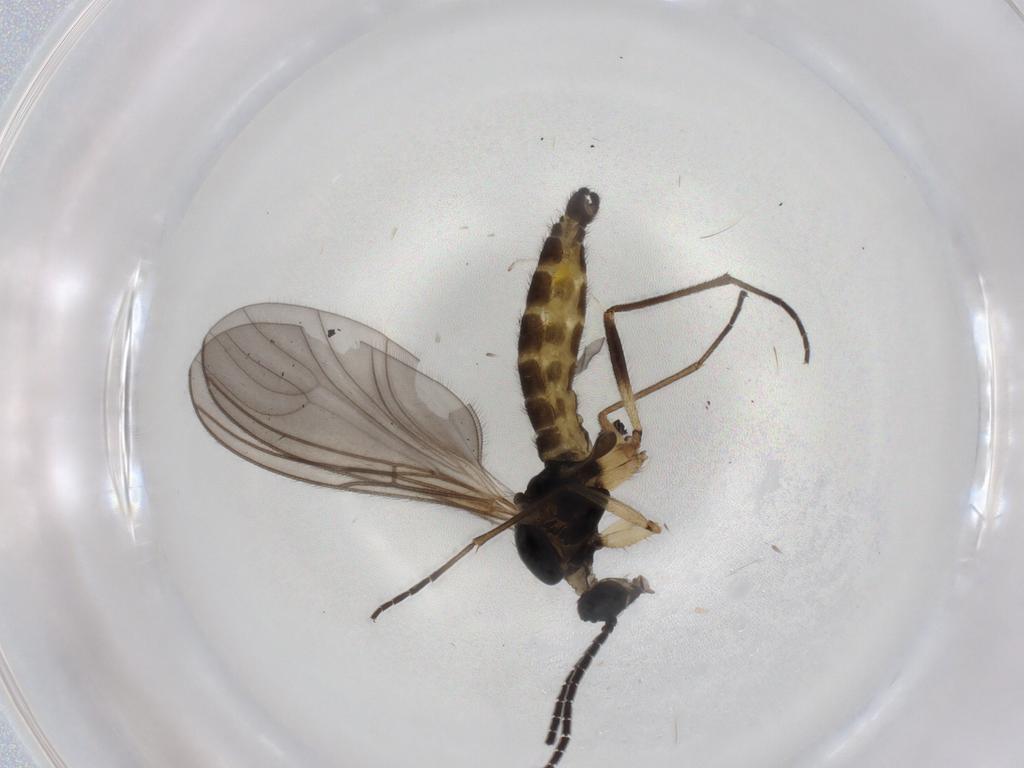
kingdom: Animalia
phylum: Arthropoda
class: Insecta
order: Diptera
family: Sciaridae
